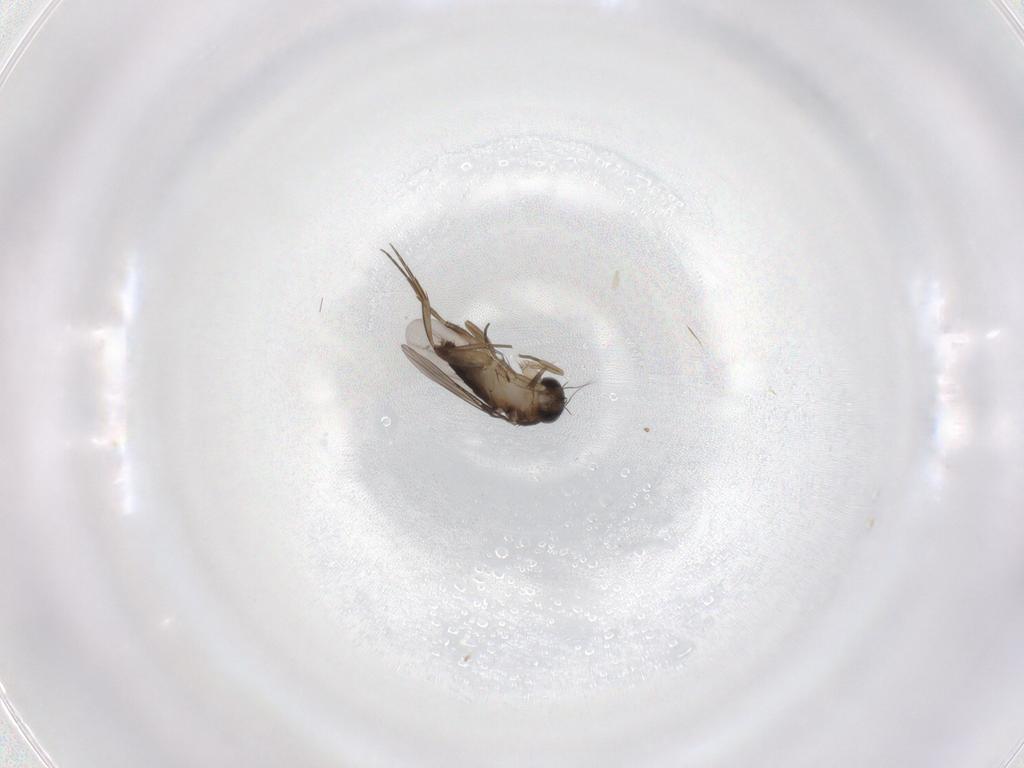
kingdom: Animalia
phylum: Arthropoda
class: Insecta
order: Diptera
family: Phoridae
